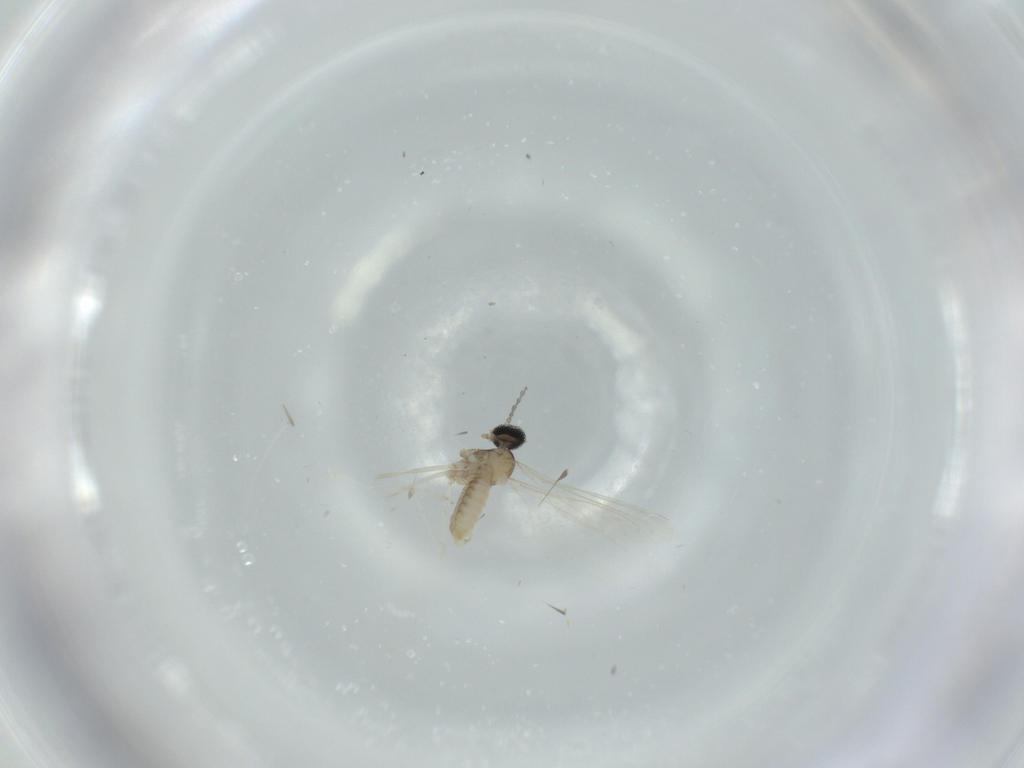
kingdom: Animalia
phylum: Arthropoda
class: Insecta
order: Diptera
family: Cecidomyiidae
